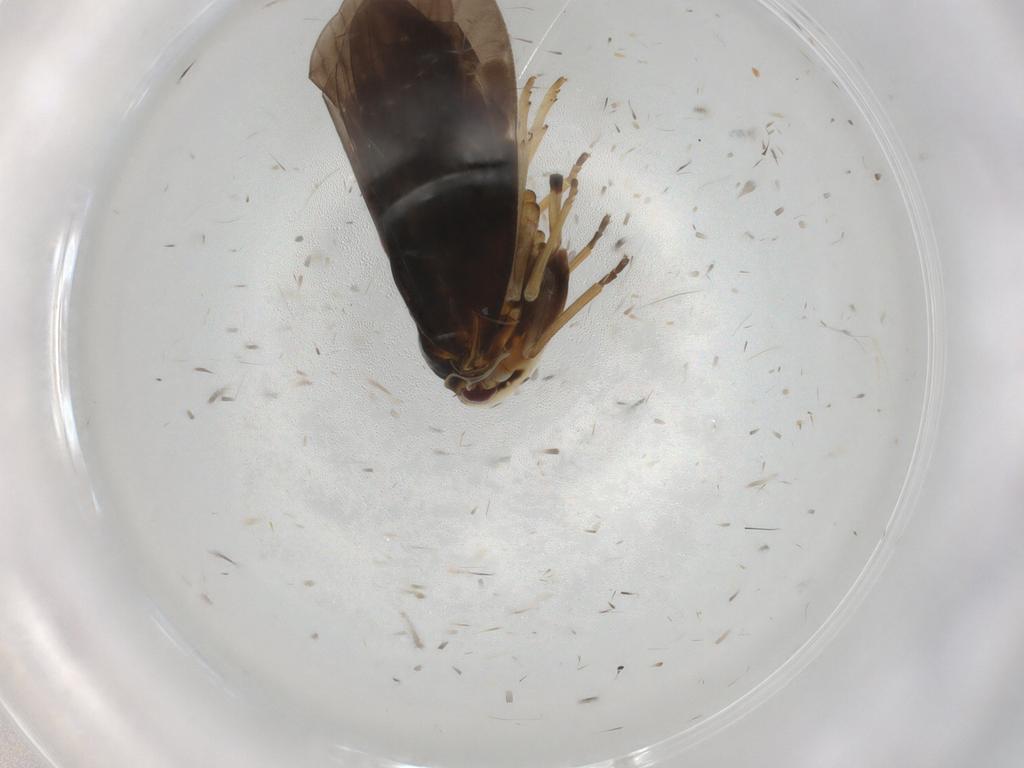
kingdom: Animalia
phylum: Arthropoda
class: Insecta
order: Hemiptera
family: Derbidae
